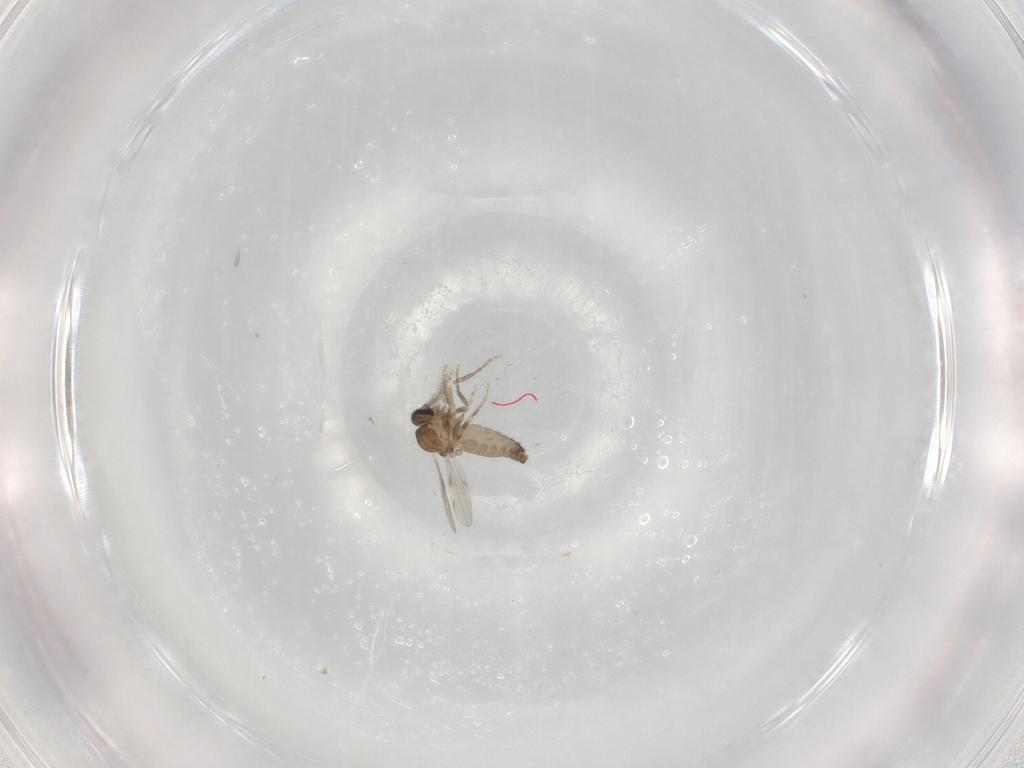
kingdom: Animalia
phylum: Arthropoda
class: Insecta
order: Diptera
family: Ceratopogonidae
